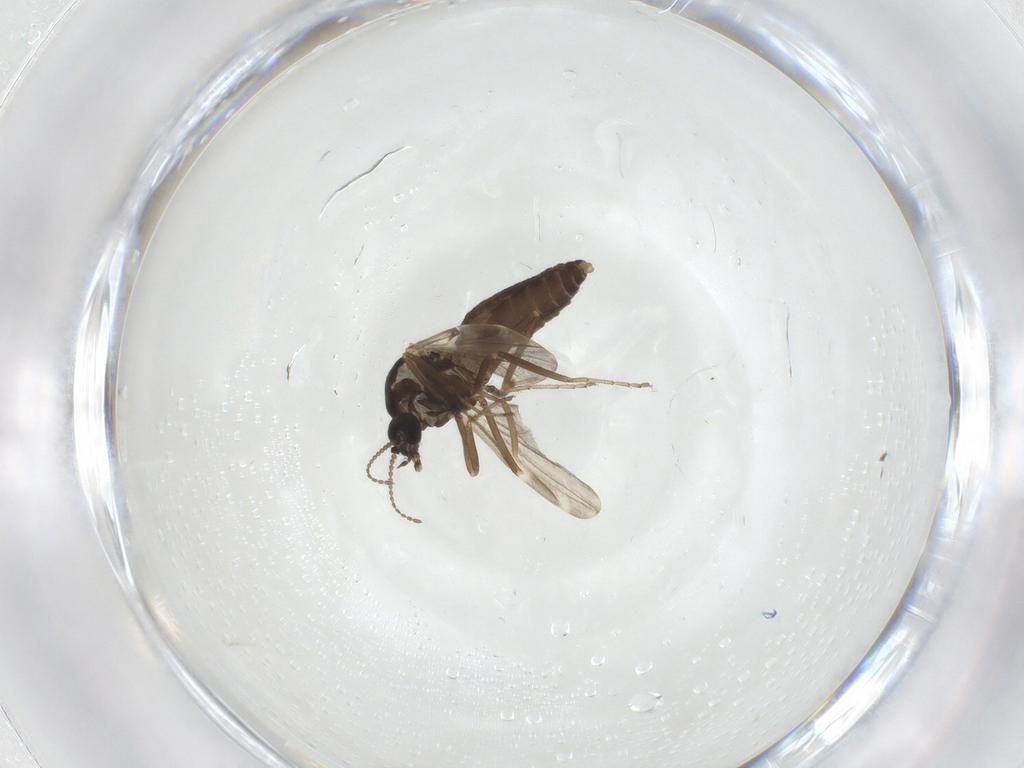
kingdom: Animalia
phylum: Arthropoda
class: Insecta
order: Diptera
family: Ceratopogonidae
